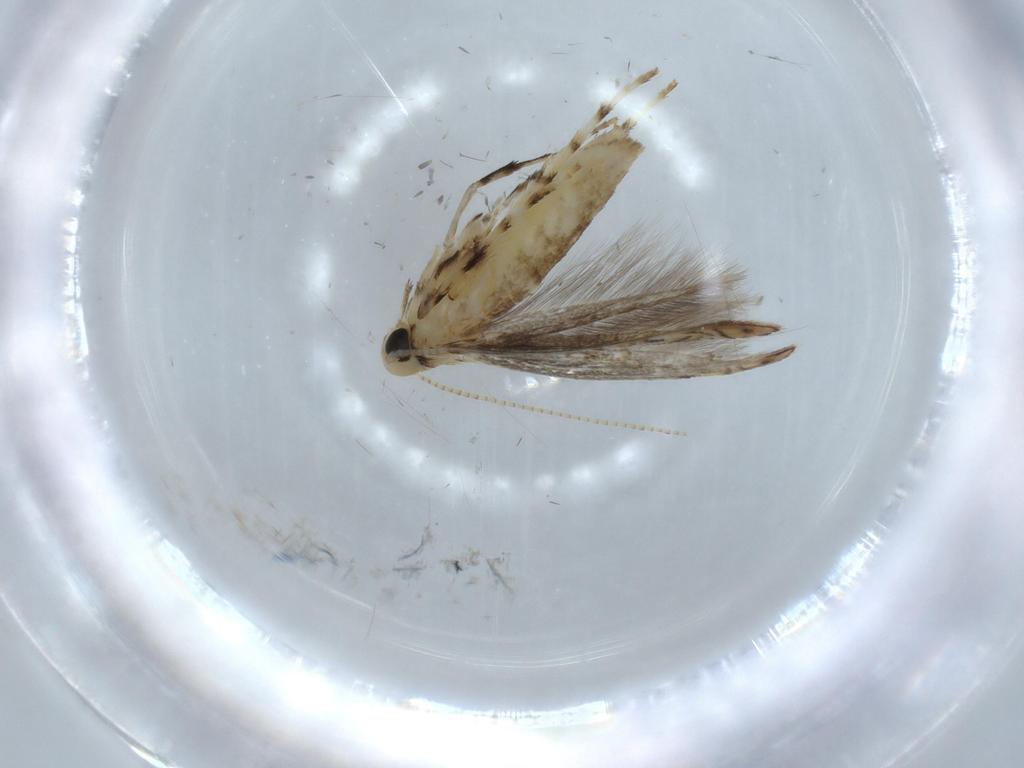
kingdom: Animalia
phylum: Arthropoda
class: Insecta
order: Lepidoptera
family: Gracillariidae
